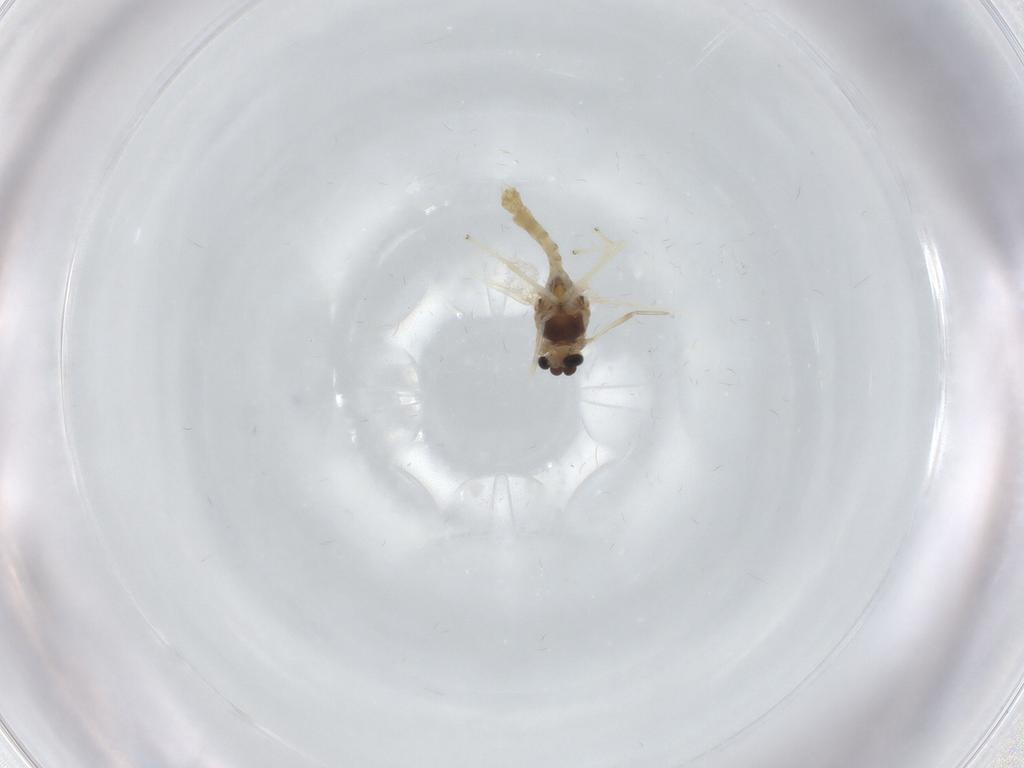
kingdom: Animalia
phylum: Arthropoda
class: Insecta
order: Diptera
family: Chironomidae
